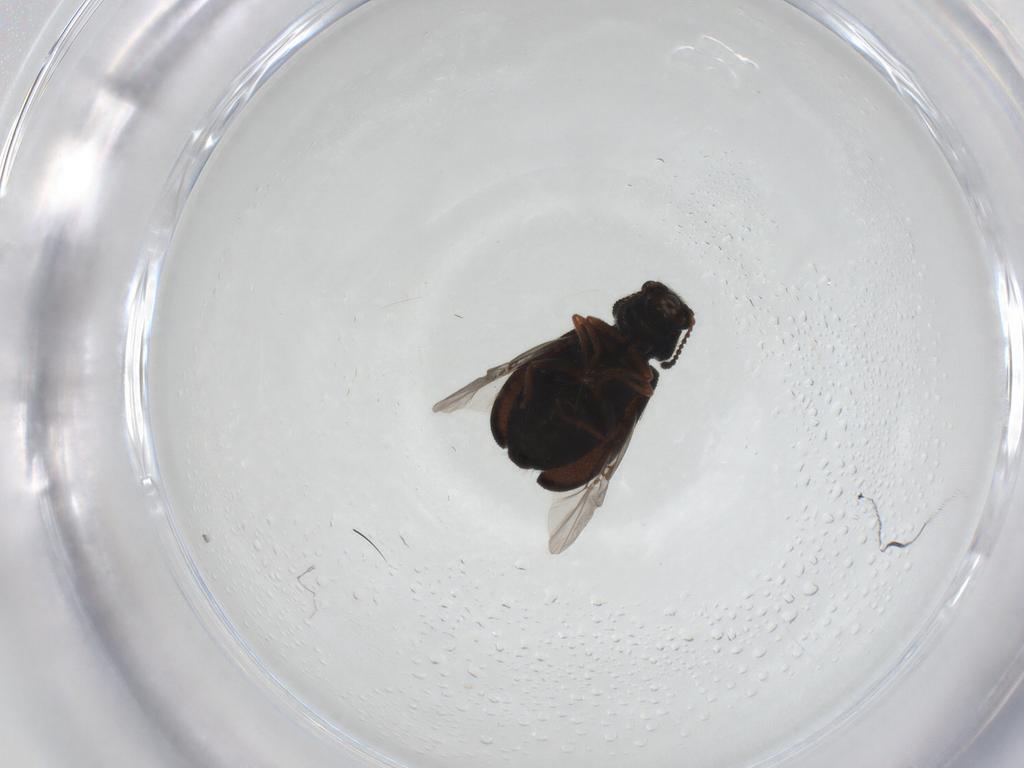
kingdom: Animalia
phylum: Arthropoda
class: Insecta
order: Coleoptera
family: Melyridae
